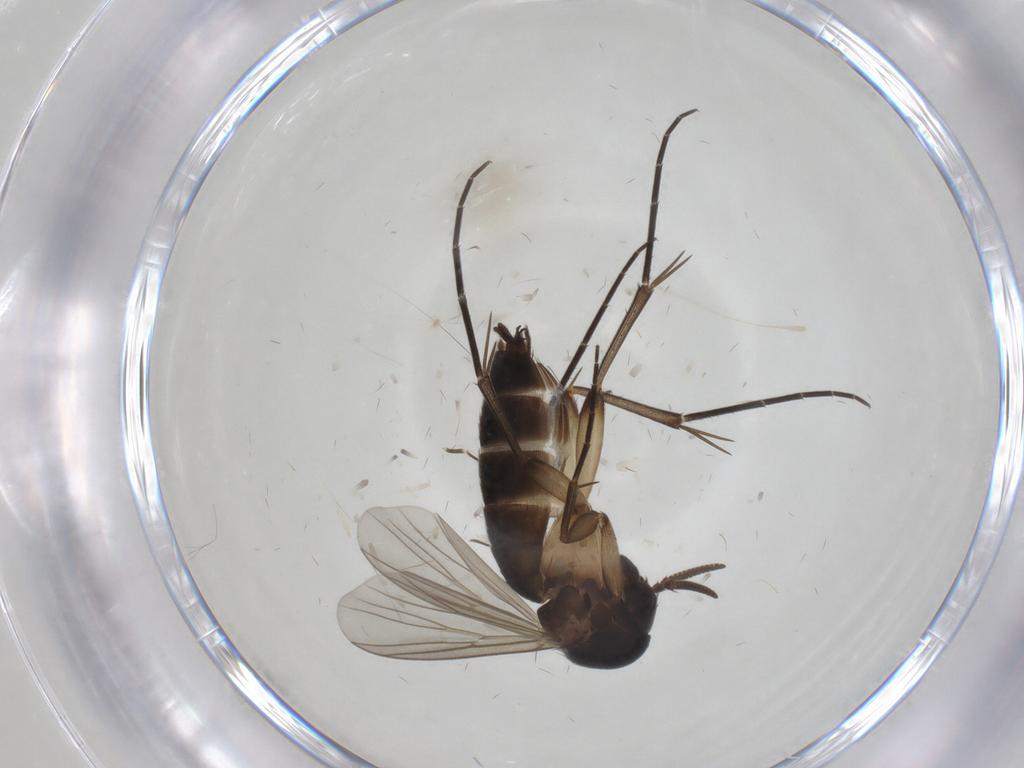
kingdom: Animalia
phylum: Arthropoda
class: Insecta
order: Diptera
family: Mycetophilidae
